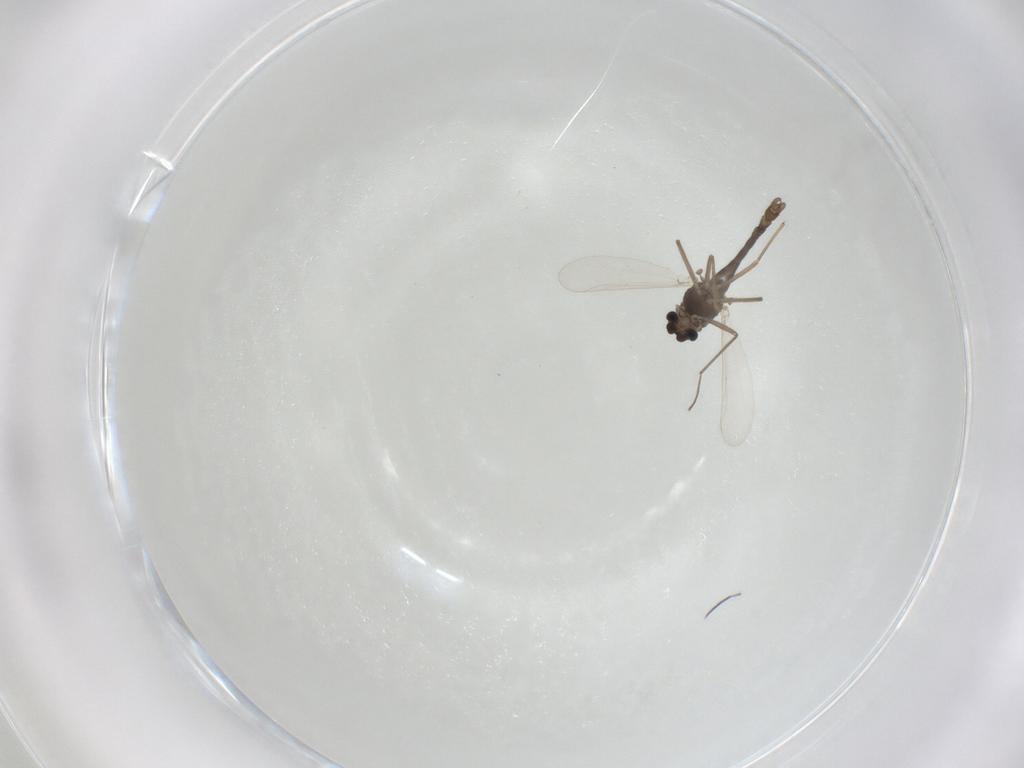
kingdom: Animalia
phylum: Arthropoda
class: Insecta
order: Diptera
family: Chironomidae
